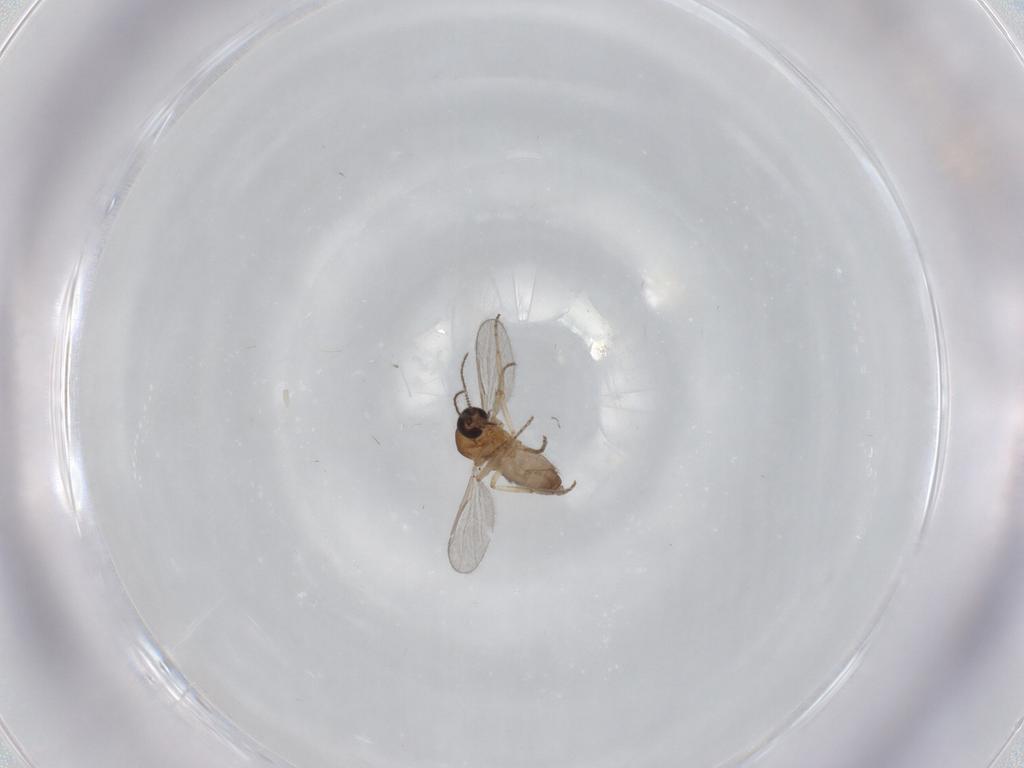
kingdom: Animalia
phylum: Arthropoda
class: Insecta
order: Diptera
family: Ceratopogonidae
